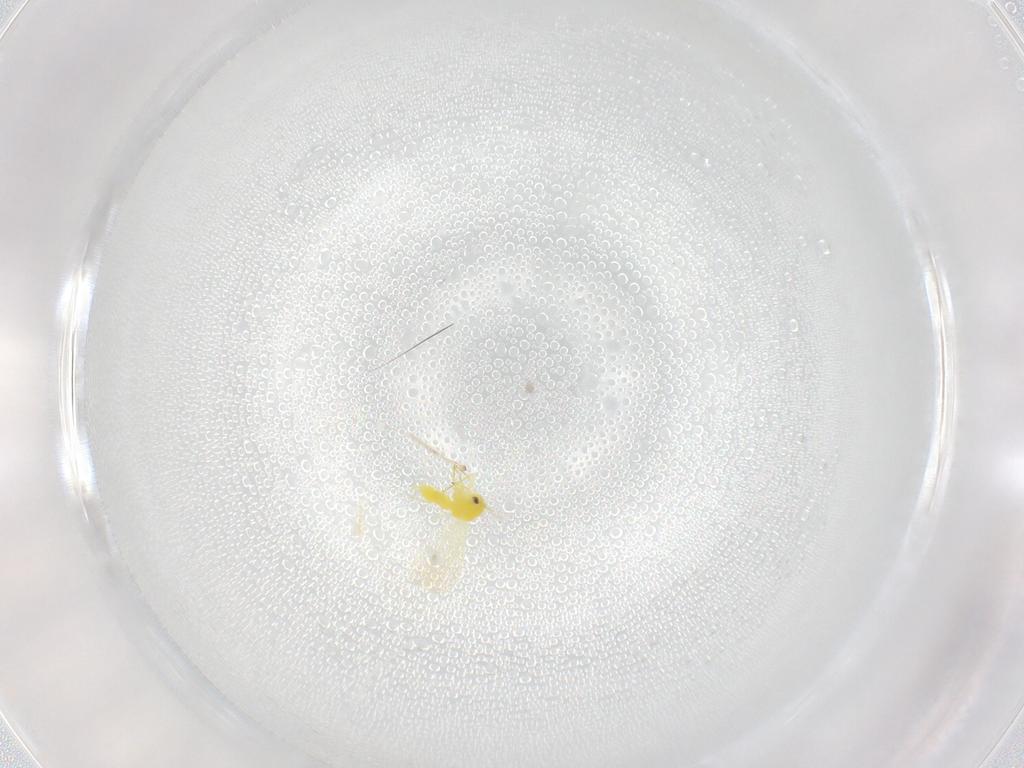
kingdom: Animalia
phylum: Arthropoda
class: Insecta
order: Hemiptera
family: Aleyrodidae
